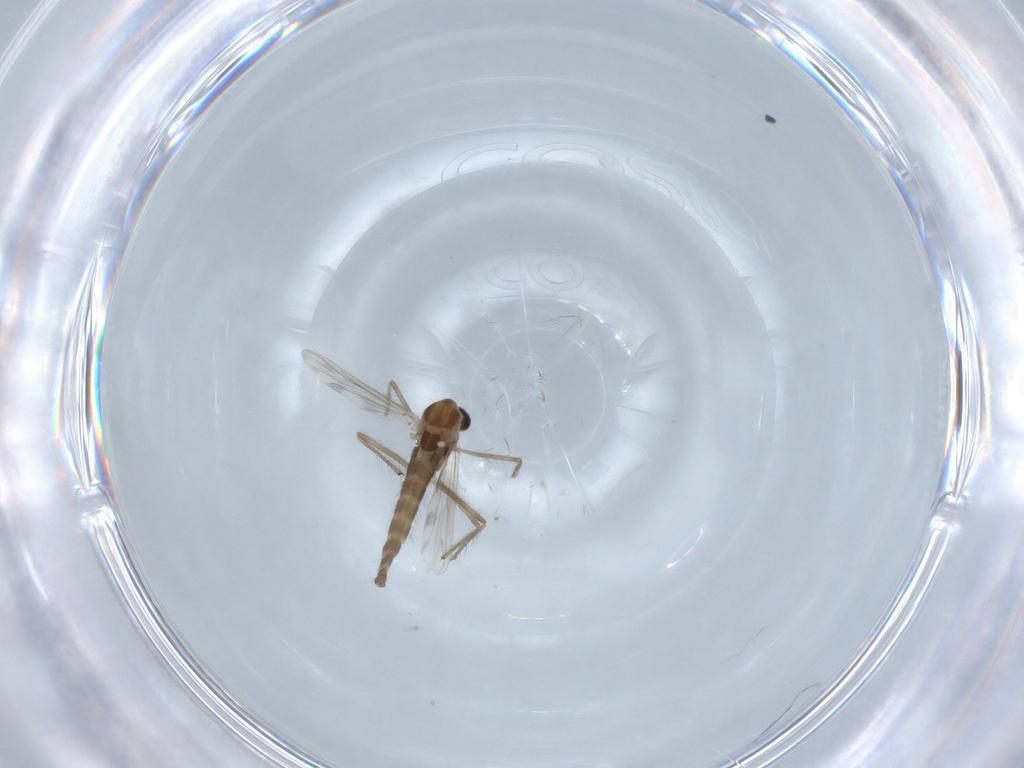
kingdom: Animalia
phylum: Arthropoda
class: Insecta
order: Diptera
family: Cecidomyiidae
